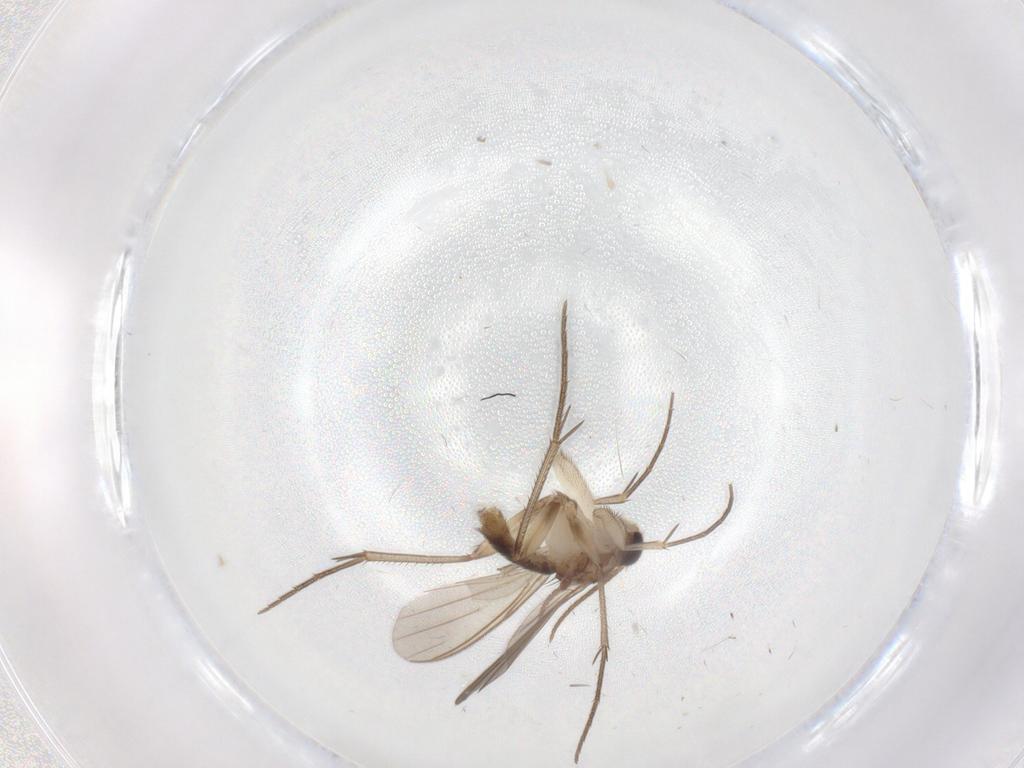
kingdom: Animalia
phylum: Arthropoda
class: Insecta
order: Diptera
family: Mycetophilidae
